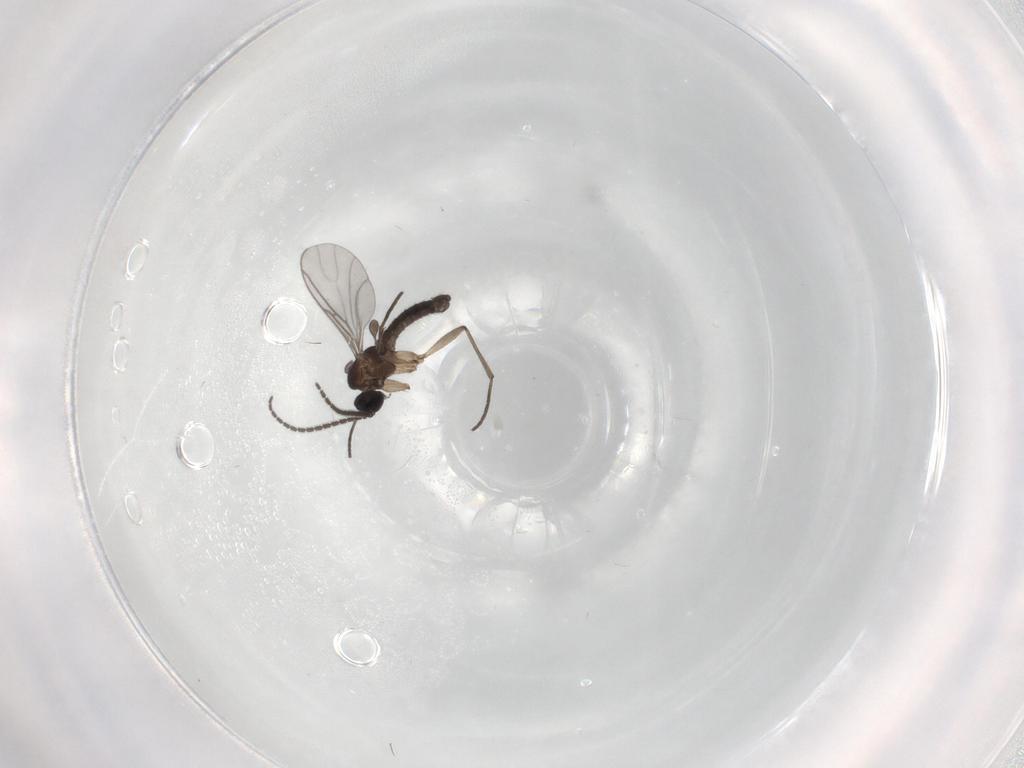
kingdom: Animalia
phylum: Arthropoda
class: Insecta
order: Diptera
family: Sciaridae
